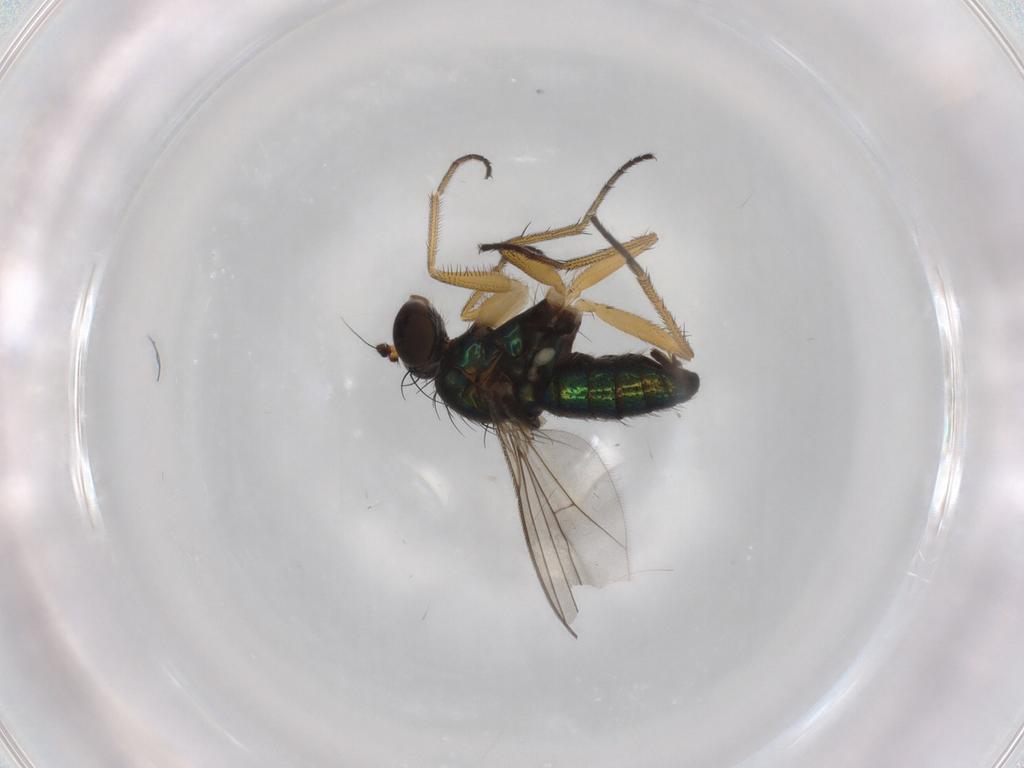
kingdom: Animalia
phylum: Arthropoda
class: Insecta
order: Diptera
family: Dolichopodidae
